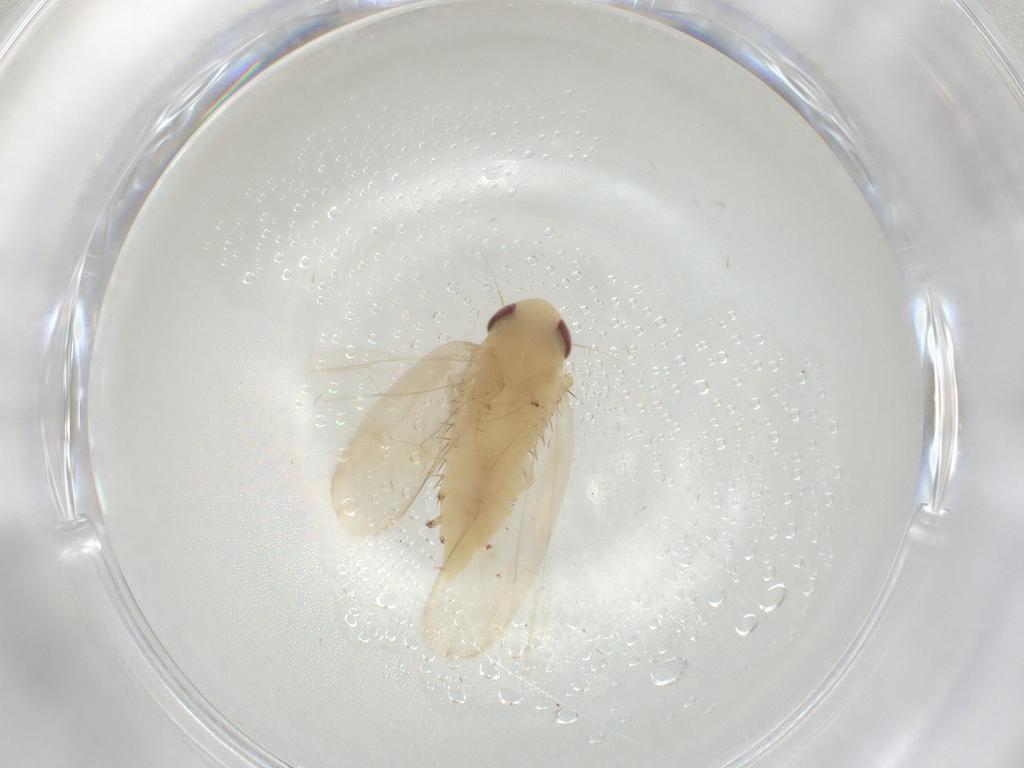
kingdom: Animalia
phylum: Arthropoda
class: Insecta
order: Hemiptera
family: Cicadellidae
